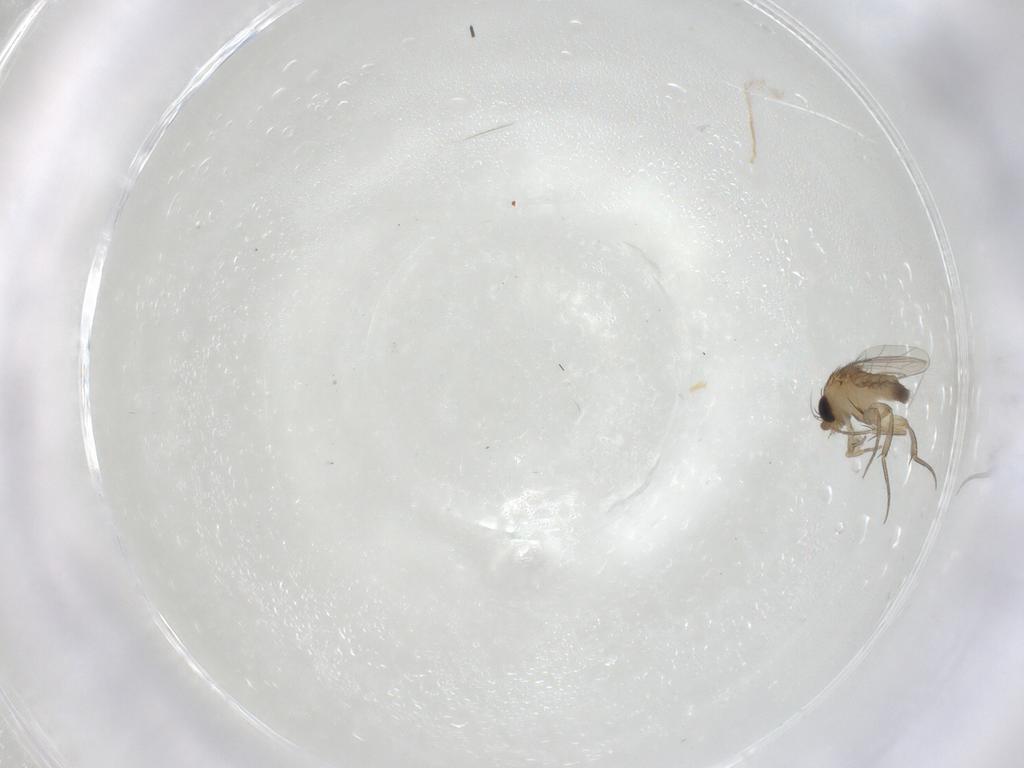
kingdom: Animalia
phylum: Arthropoda
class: Insecta
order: Diptera
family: Phoridae
